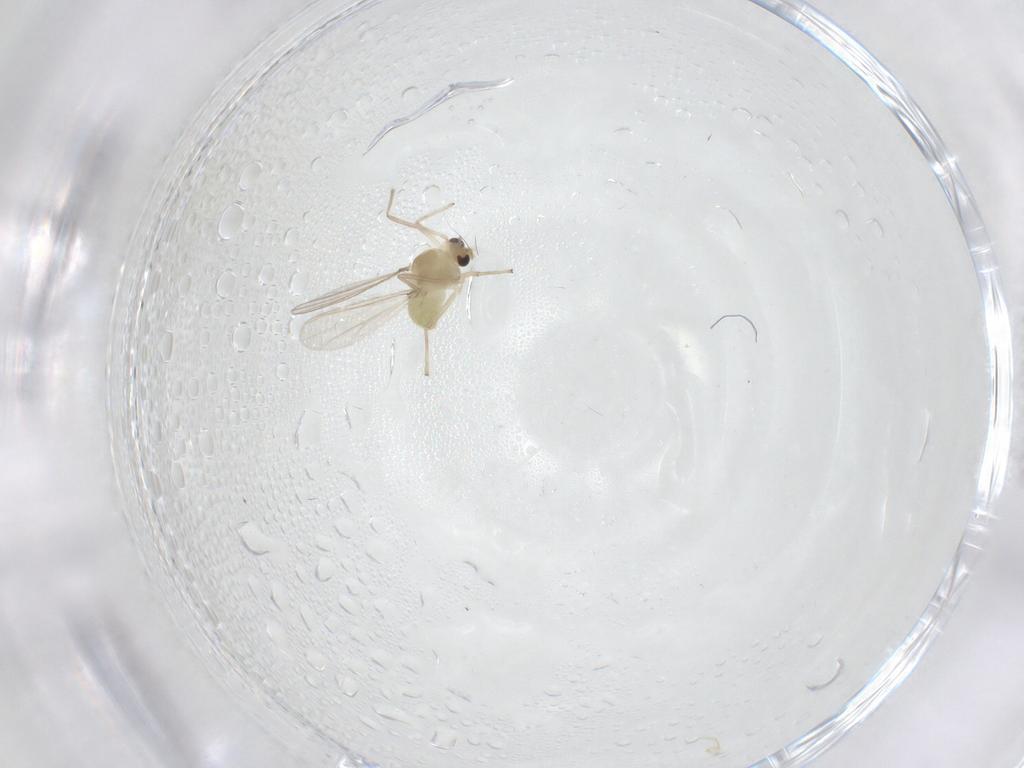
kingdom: Animalia
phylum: Arthropoda
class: Insecta
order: Diptera
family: Chironomidae
